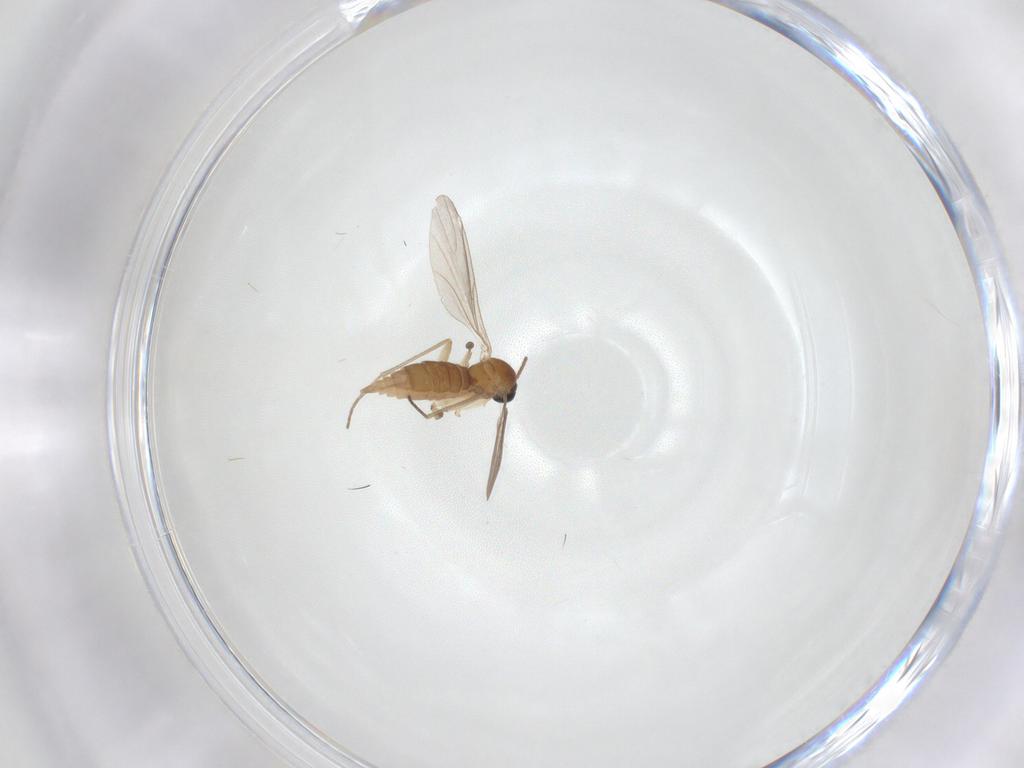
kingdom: Animalia
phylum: Arthropoda
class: Insecta
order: Diptera
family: Sciaridae
